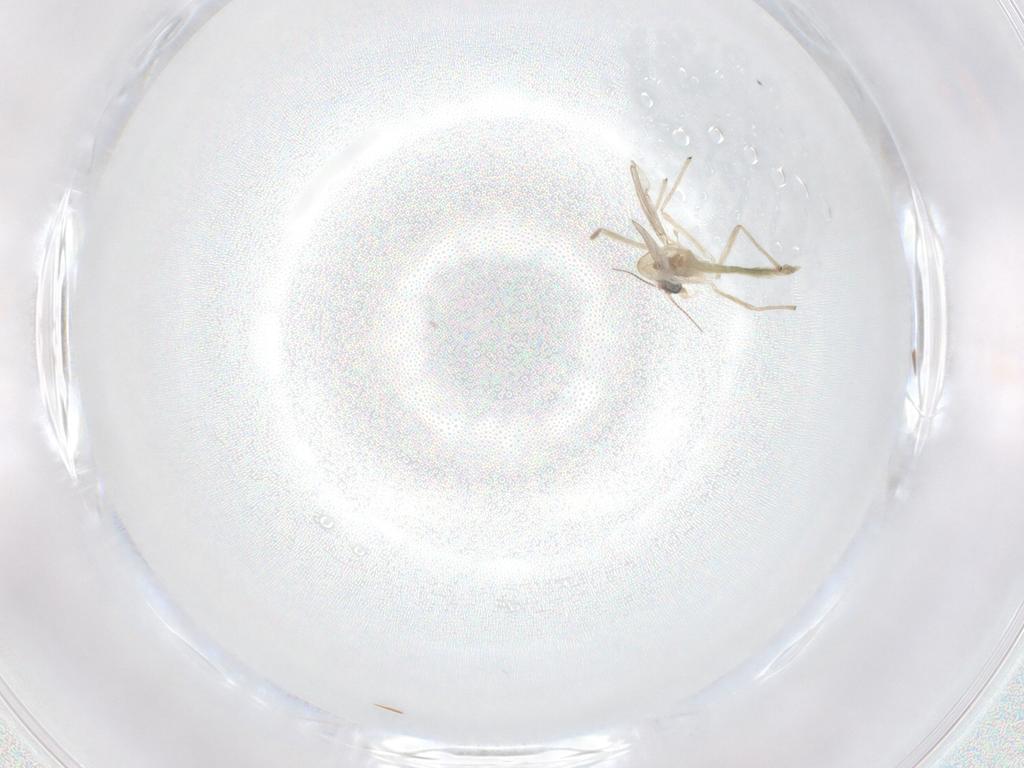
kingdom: Animalia
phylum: Arthropoda
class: Insecta
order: Diptera
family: Chironomidae
